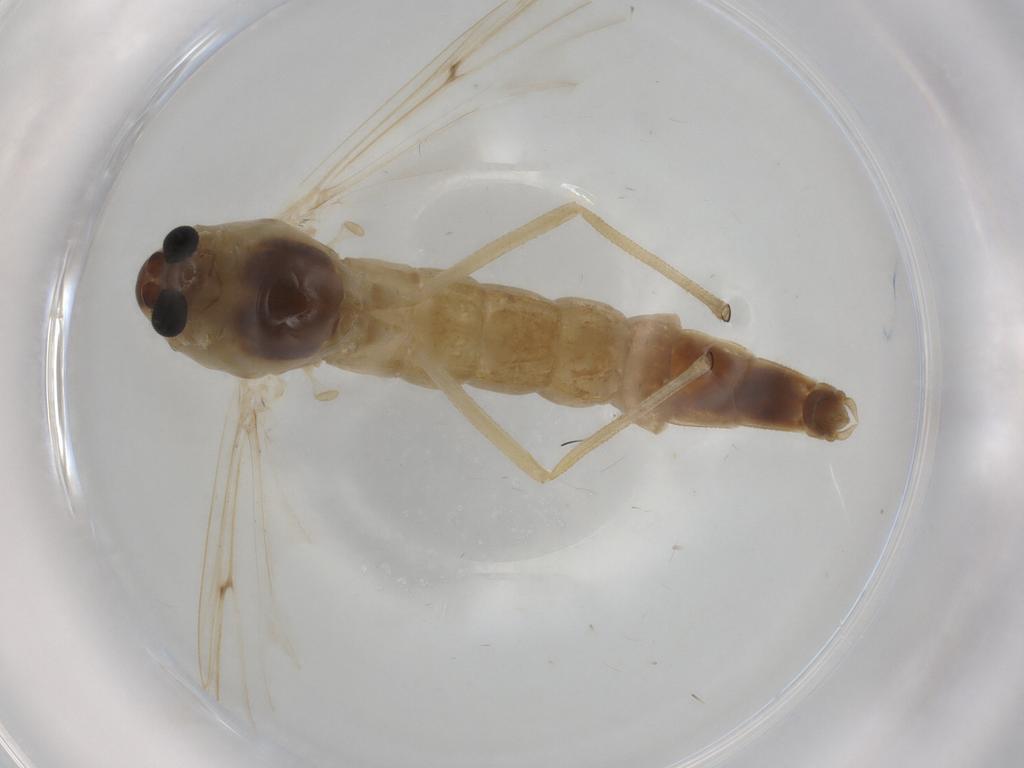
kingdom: Animalia
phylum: Arthropoda
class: Insecta
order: Diptera
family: Chironomidae
